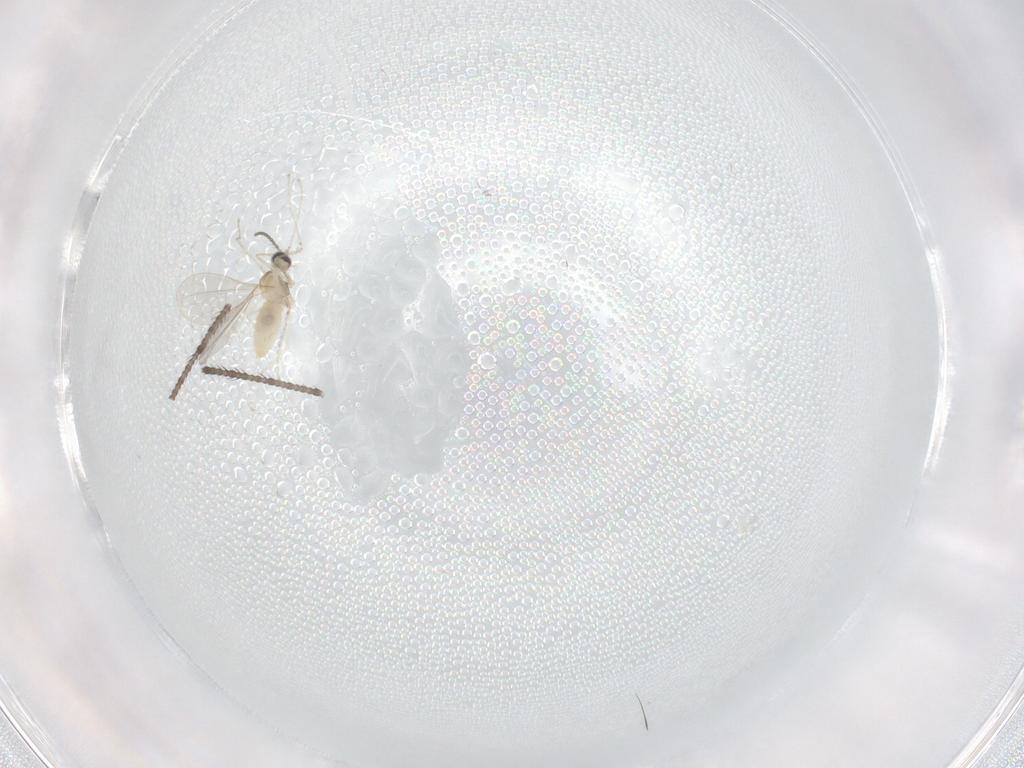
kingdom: Animalia
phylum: Arthropoda
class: Insecta
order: Diptera
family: Cecidomyiidae
